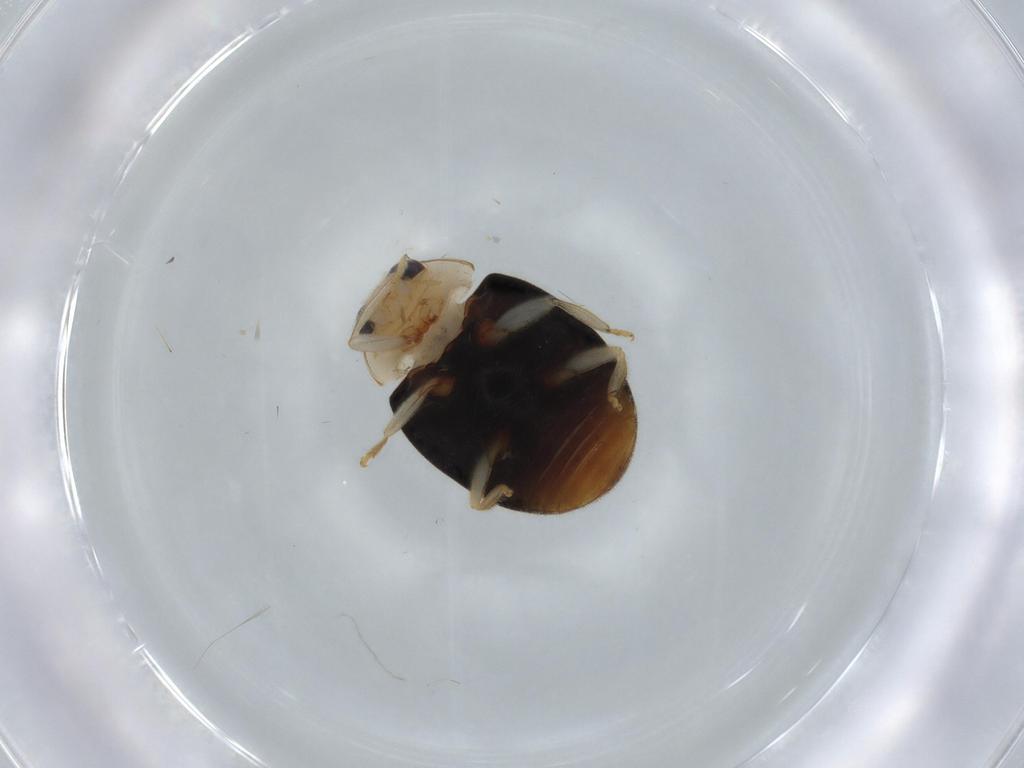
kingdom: Animalia
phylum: Arthropoda
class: Insecta
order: Coleoptera
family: Coccinellidae
